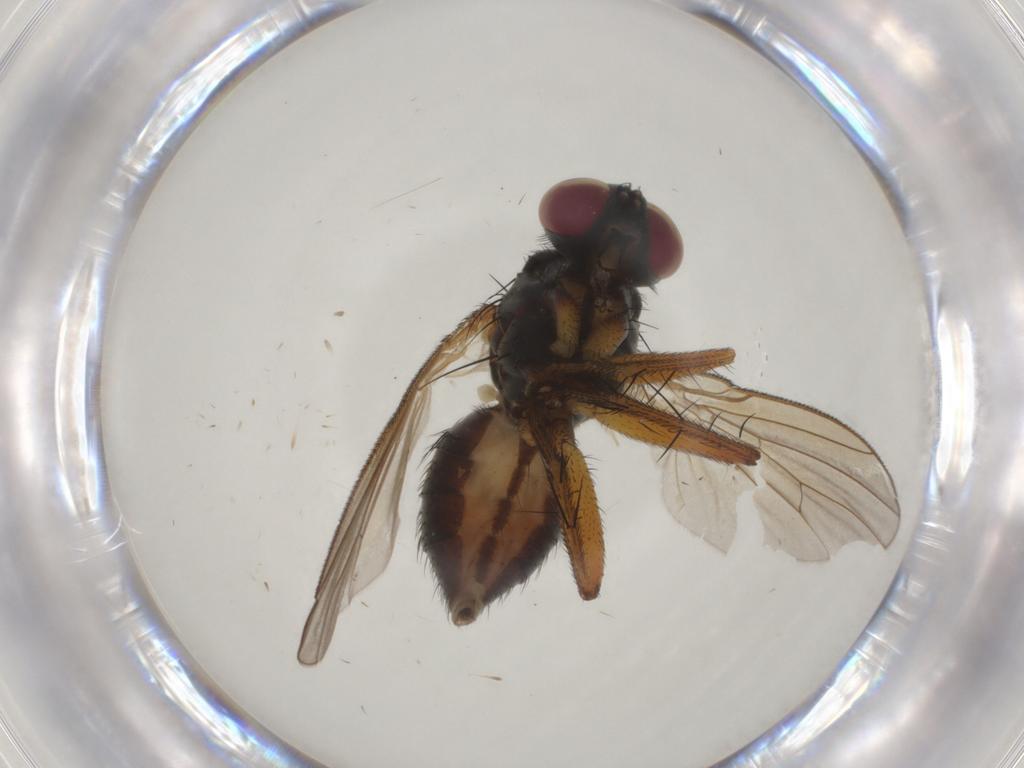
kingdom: Animalia
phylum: Arthropoda
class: Insecta
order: Diptera
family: Muscidae
